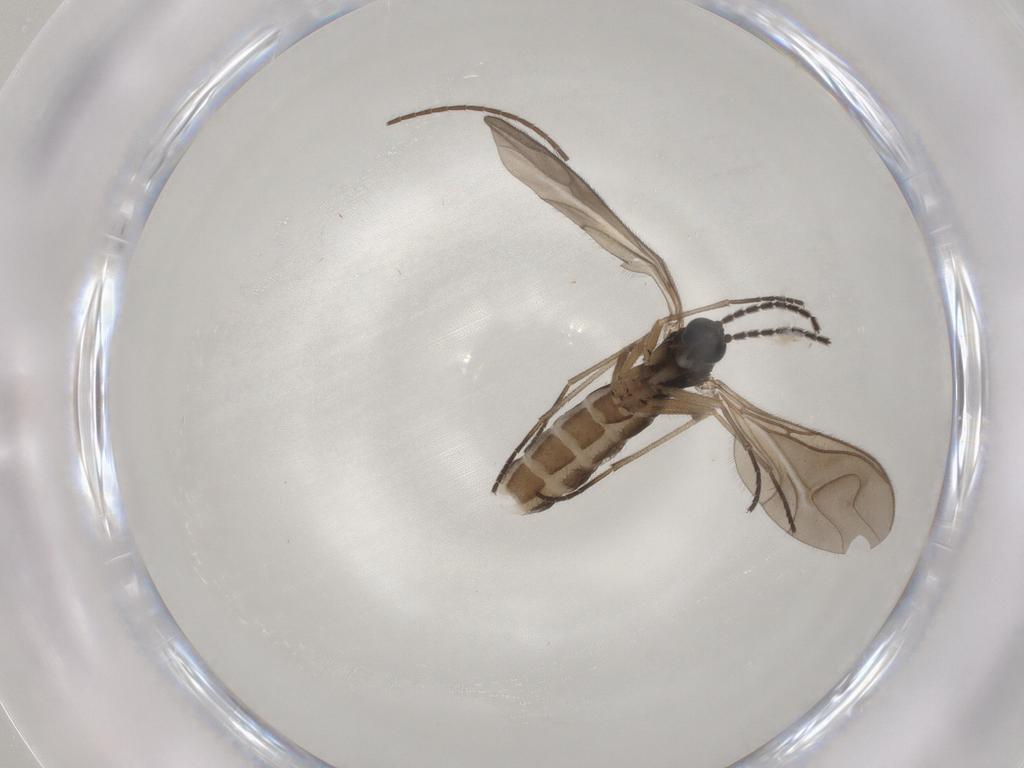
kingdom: Animalia
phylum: Arthropoda
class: Insecta
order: Diptera
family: Sciaridae
